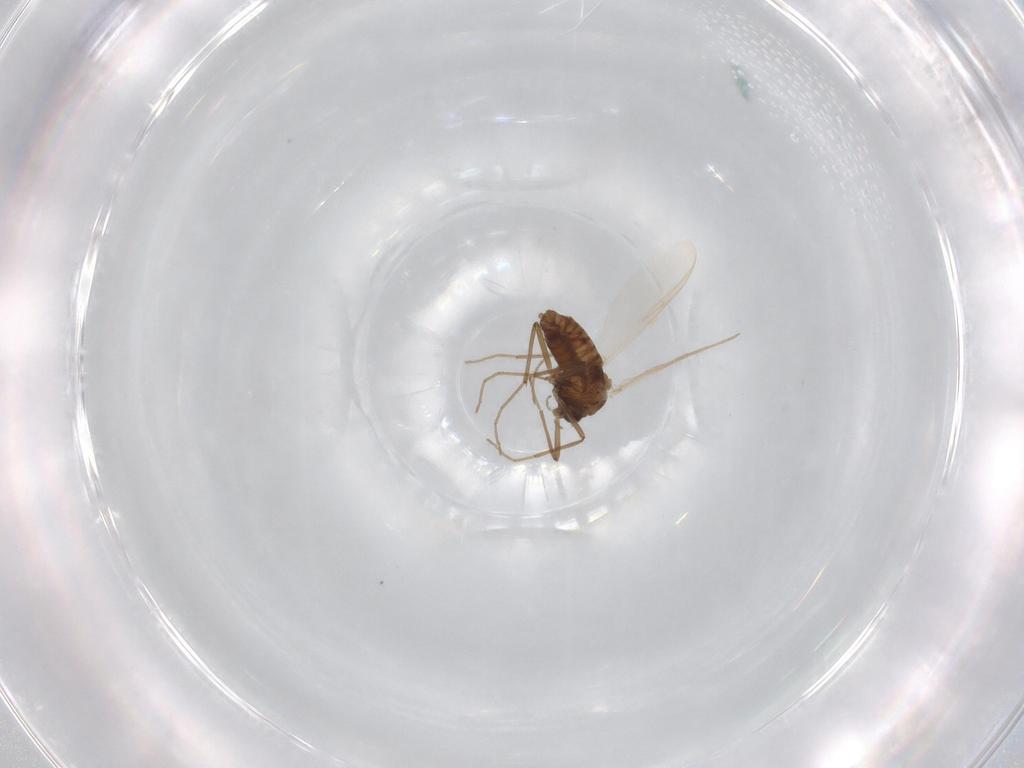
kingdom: Animalia
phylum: Arthropoda
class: Insecta
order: Diptera
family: Chironomidae
